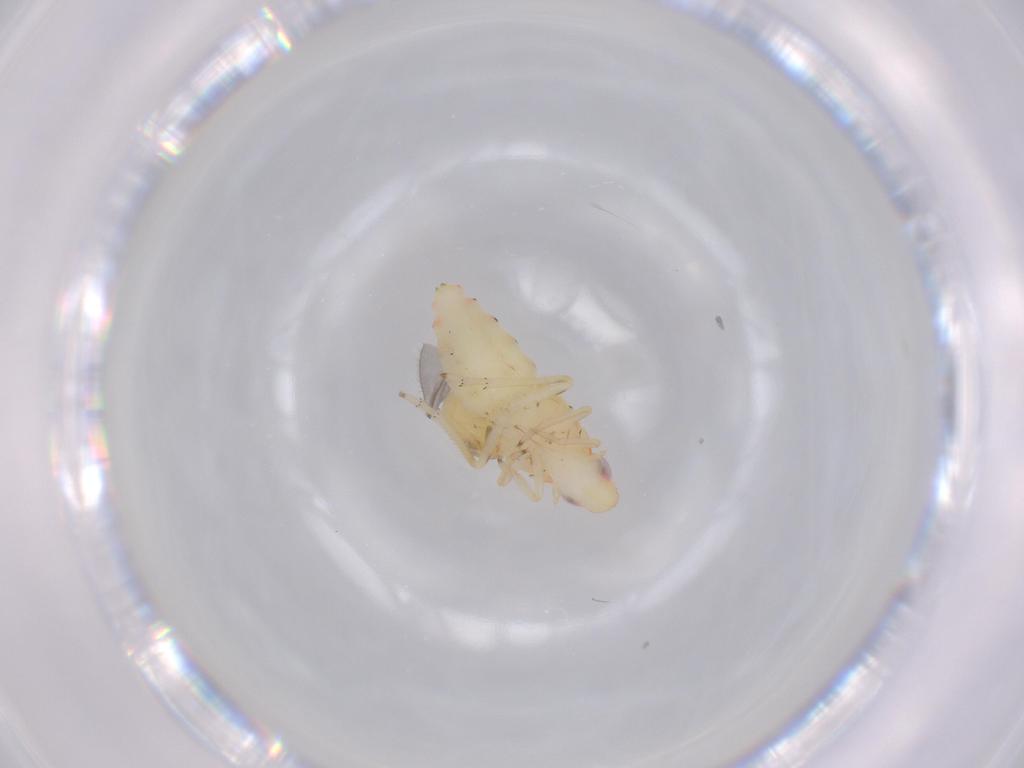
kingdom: Animalia
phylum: Arthropoda
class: Insecta
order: Hemiptera
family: Tropiduchidae
